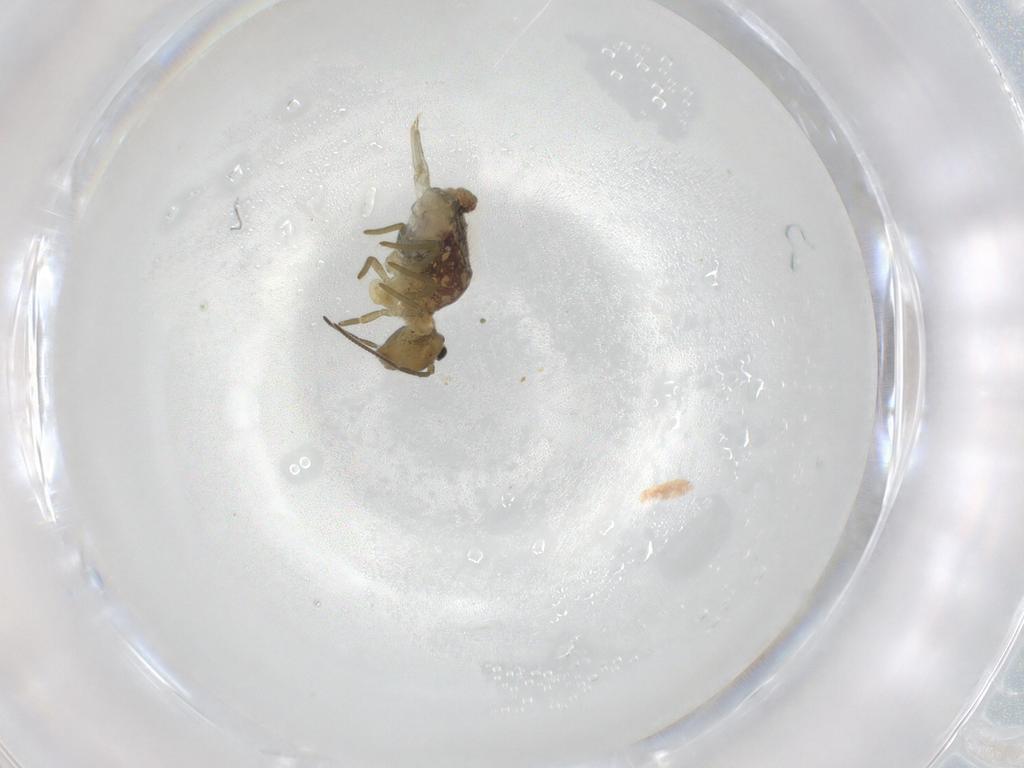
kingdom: Animalia
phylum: Arthropoda
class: Collembola
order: Symphypleona
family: Sminthuridae
